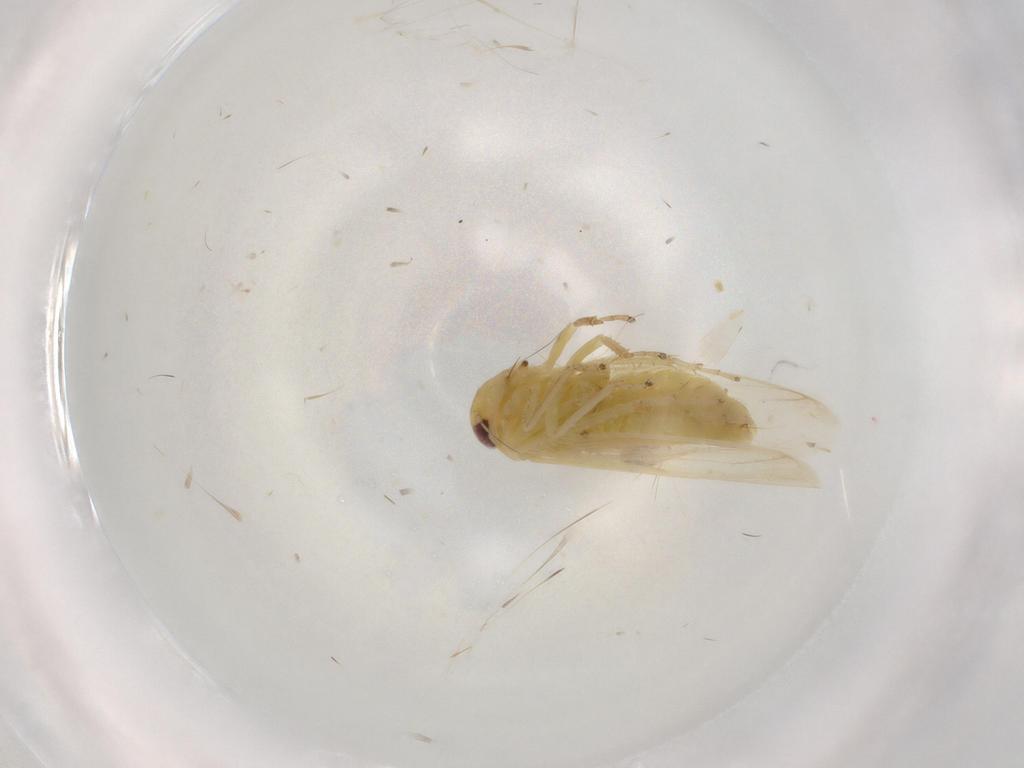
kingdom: Animalia
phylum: Arthropoda
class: Insecta
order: Hemiptera
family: Cicadellidae
